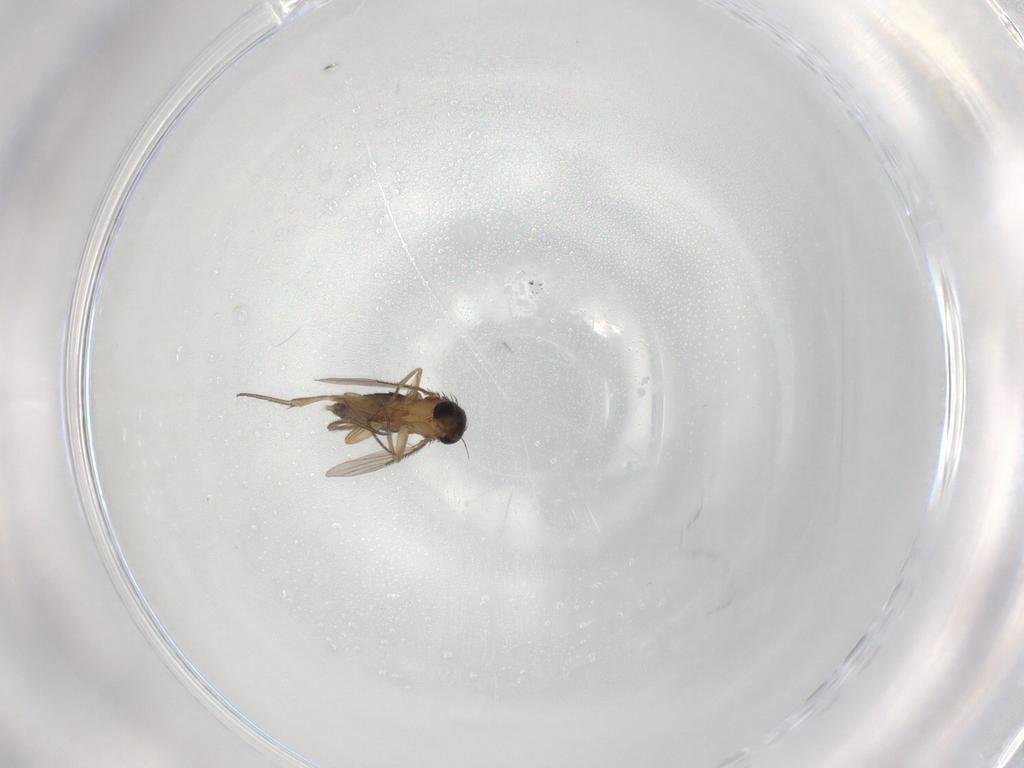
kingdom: Animalia
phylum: Arthropoda
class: Insecta
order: Diptera
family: Phoridae
